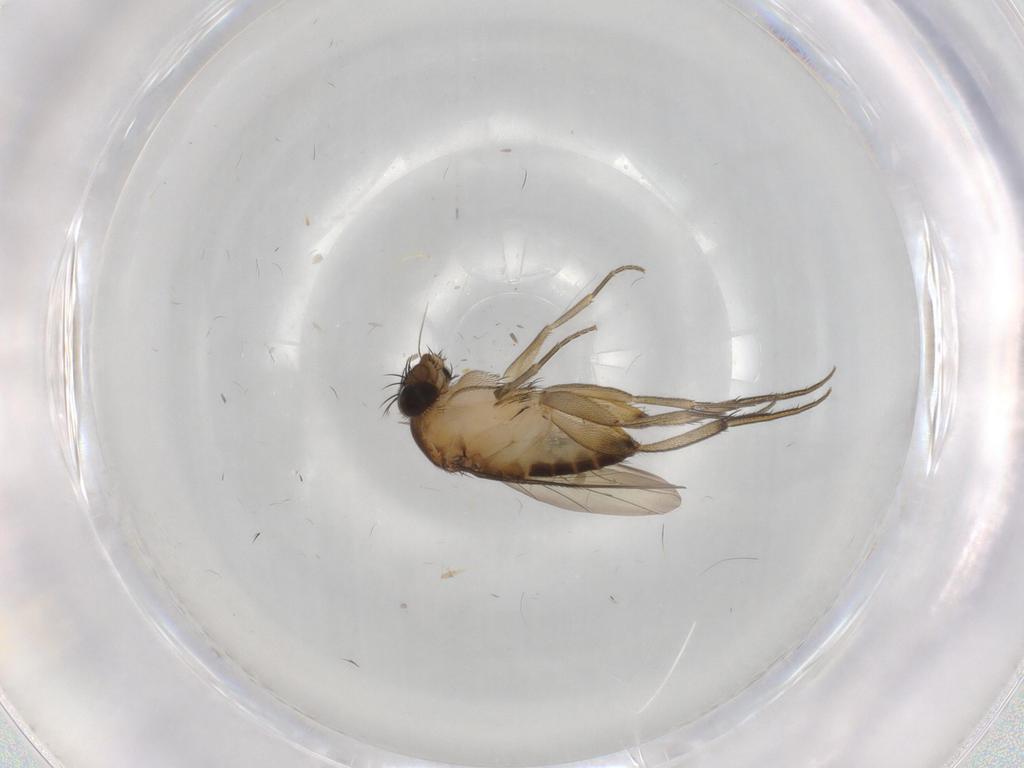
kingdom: Animalia
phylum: Arthropoda
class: Insecta
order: Diptera
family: Phoridae
